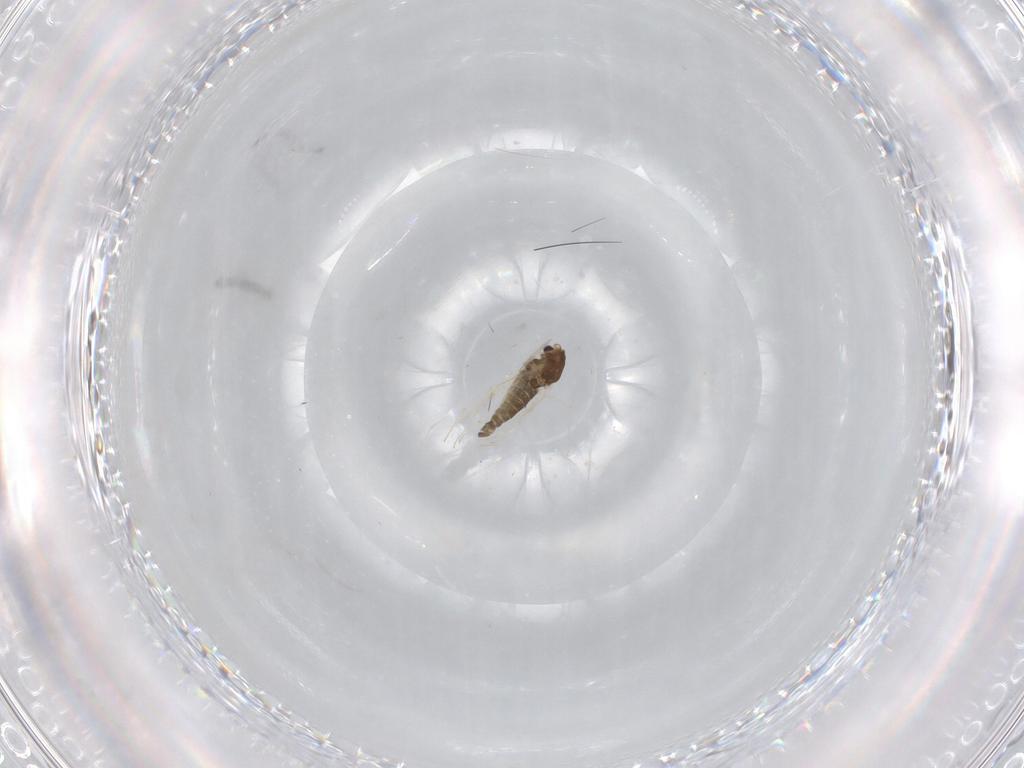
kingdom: Animalia
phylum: Arthropoda
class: Insecta
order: Diptera
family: Chironomidae
